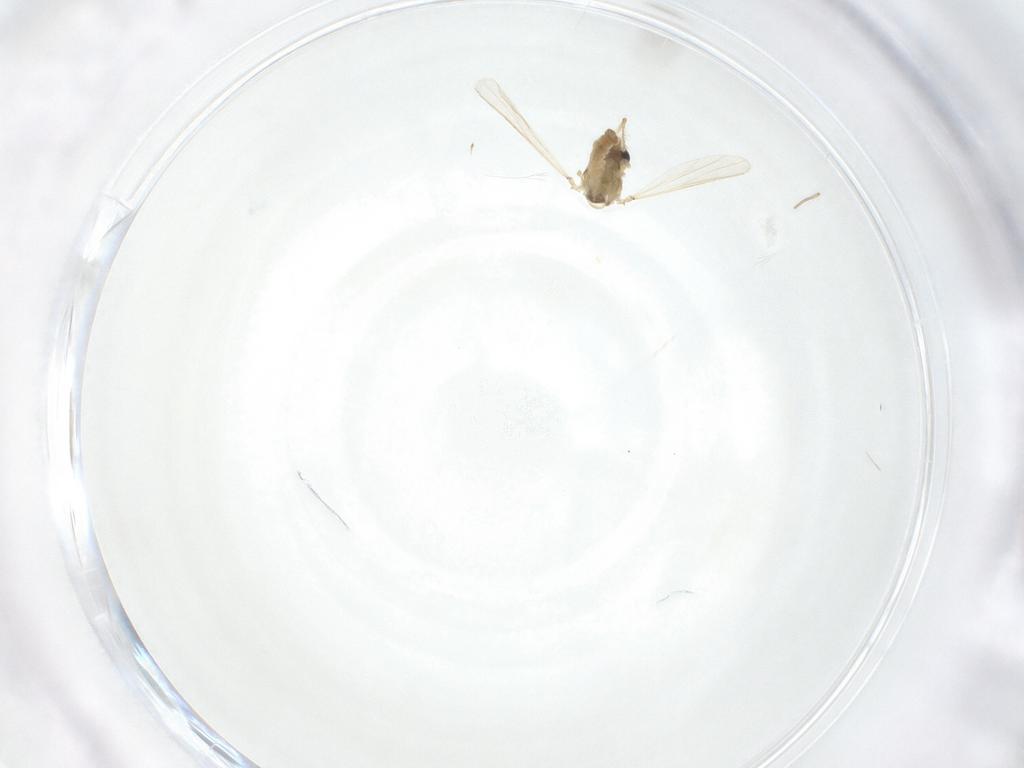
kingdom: Animalia
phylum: Arthropoda
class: Insecta
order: Diptera
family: Chironomidae
